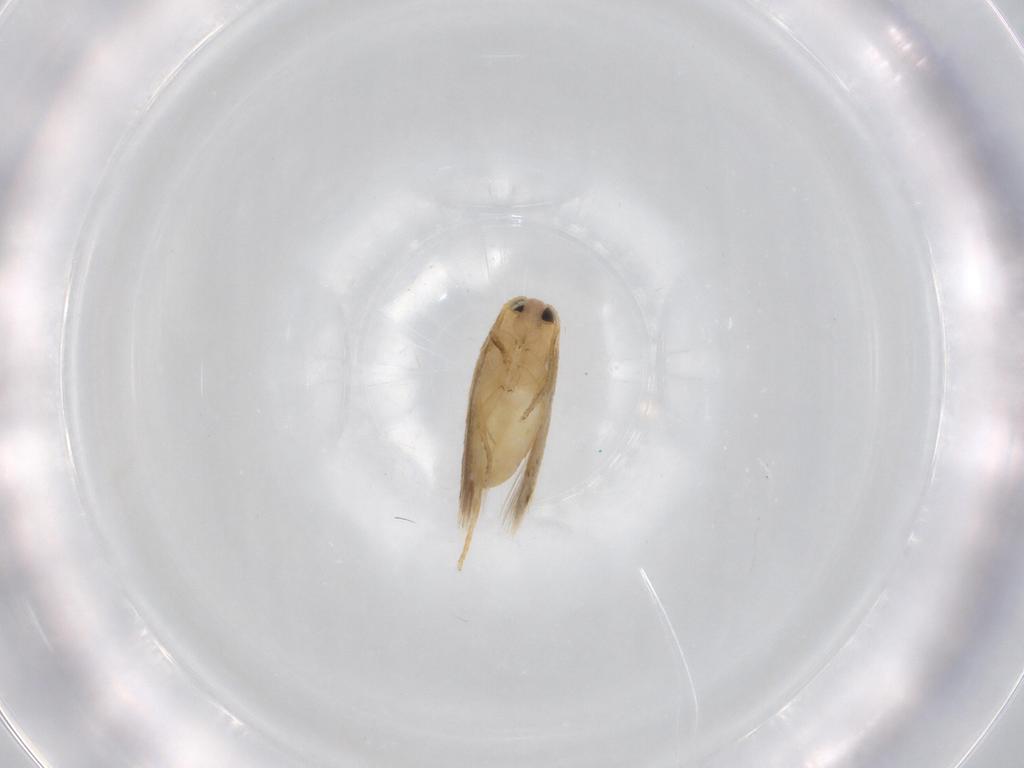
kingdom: Animalia
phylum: Arthropoda
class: Insecta
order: Lepidoptera
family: Nepticulidae
